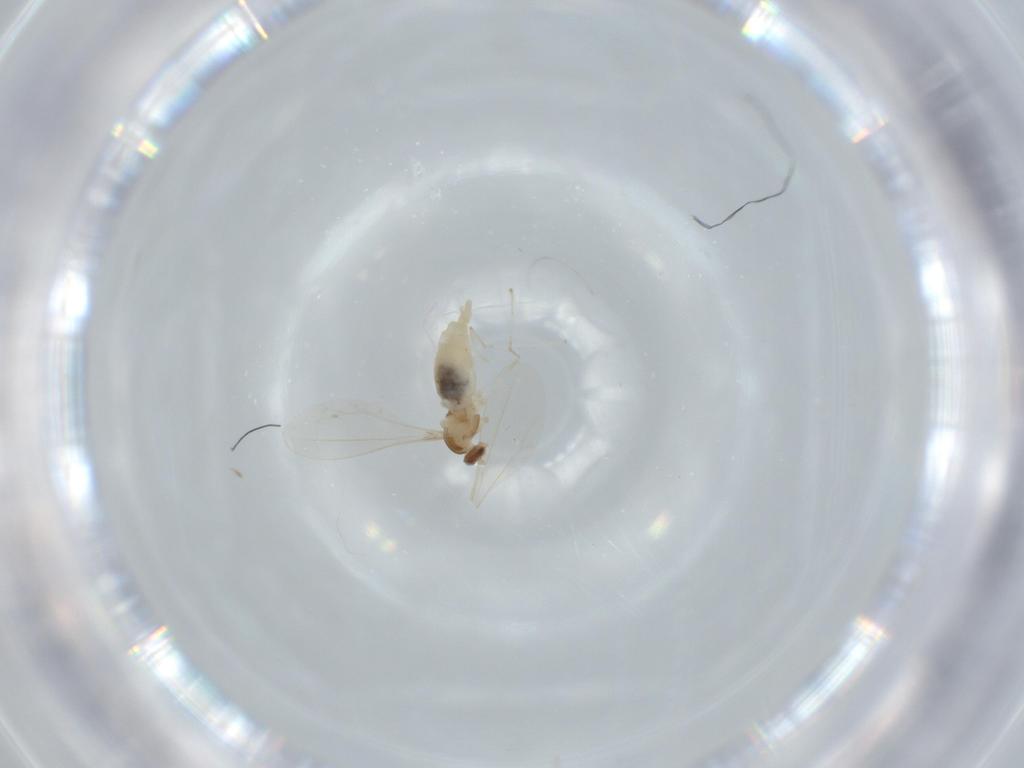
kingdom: Animalia
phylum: Arthropoda
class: Insecta
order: Diptera
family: Cecidomyiidae
